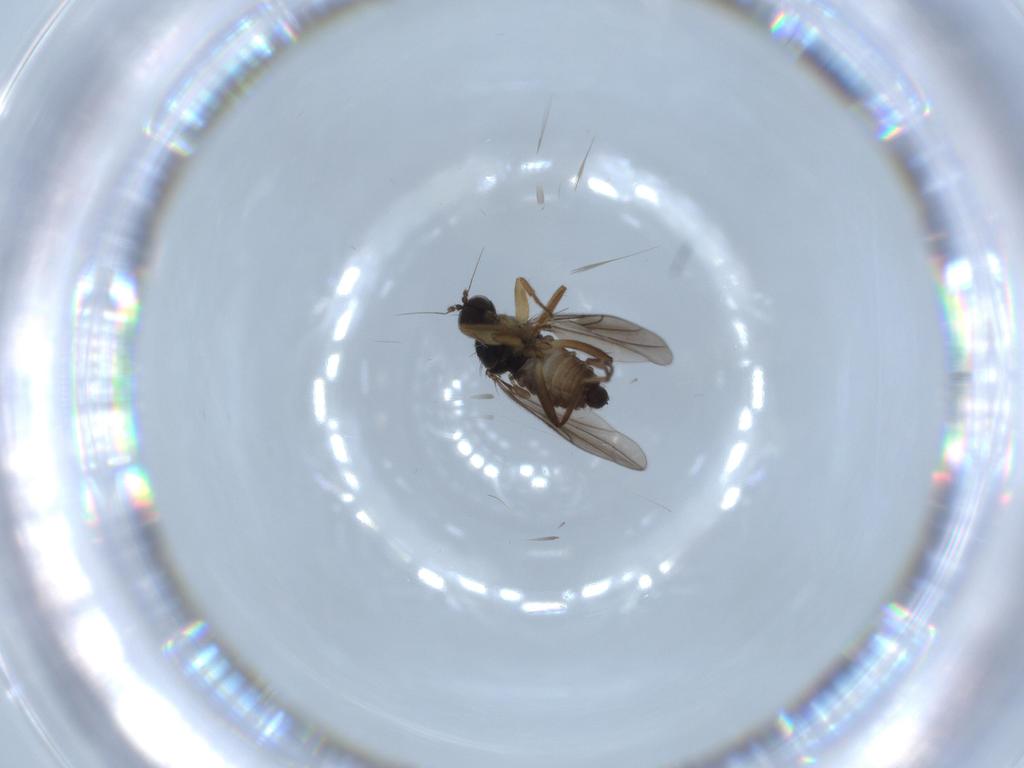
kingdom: Animalia
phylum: Arthropoda
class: Insecta
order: Diptera
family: Hybotidae
